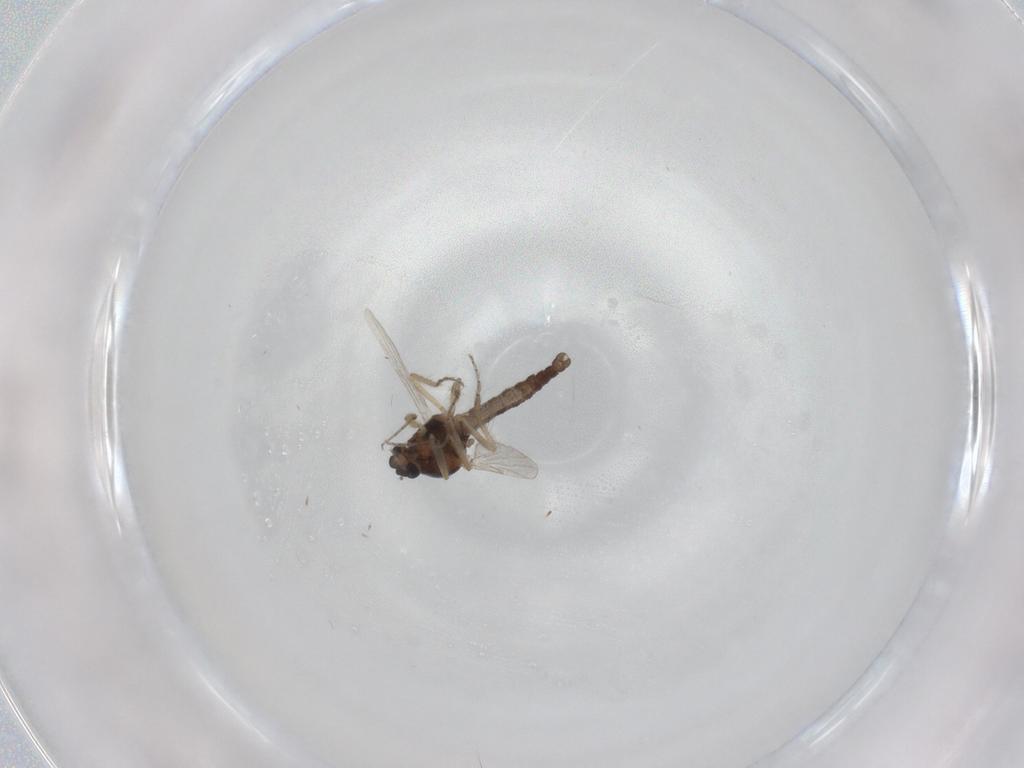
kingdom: Animalia
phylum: Arthropoda
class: Insecta
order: Diptera
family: Ceratopogonidae
